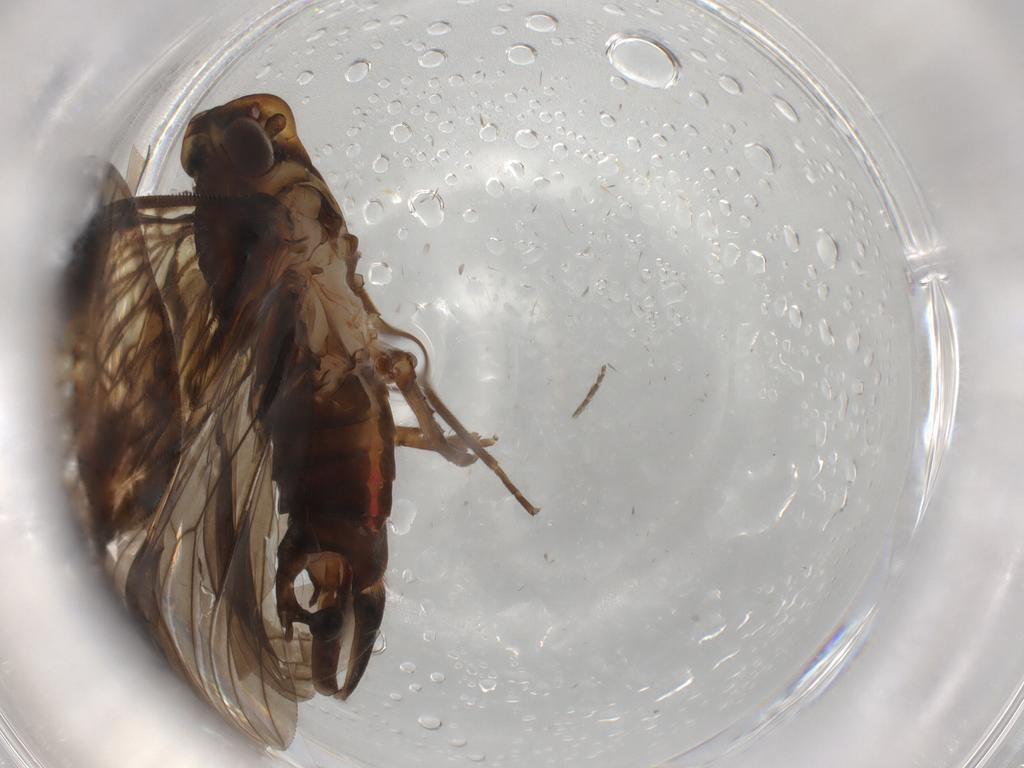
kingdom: Animalia
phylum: Arthropoda
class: Insecta
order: Hemiptera
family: Cixiidae
